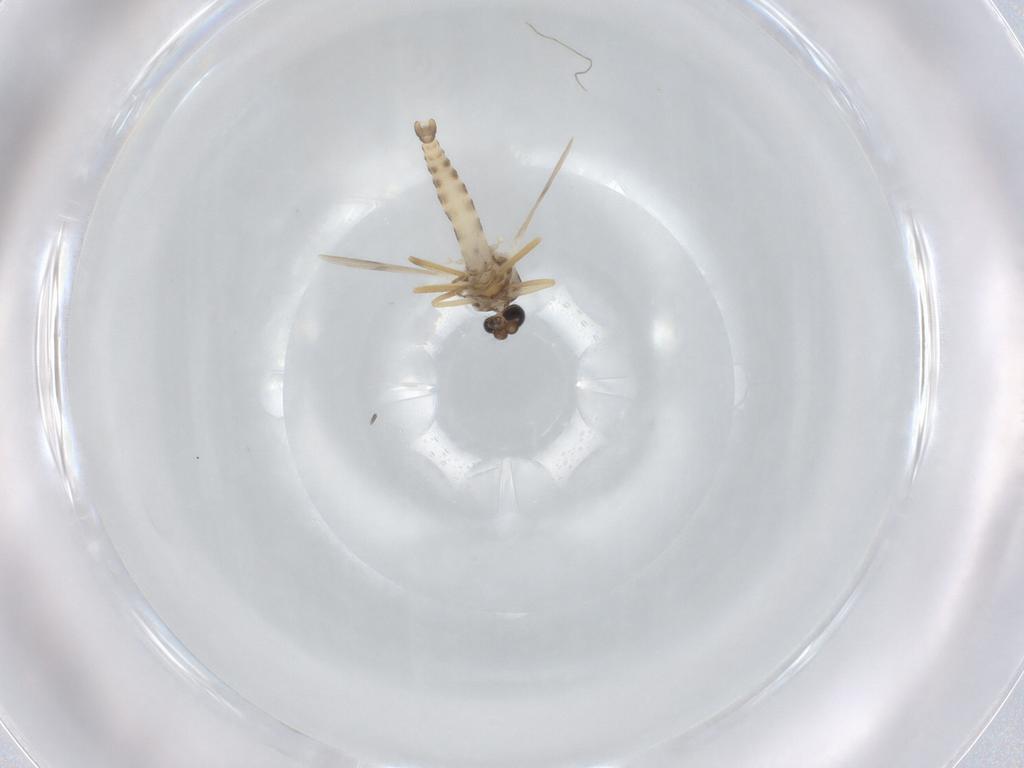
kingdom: Animalia
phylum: Arthropoda
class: Insecta
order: Diptera
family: Ceratopogonidae
